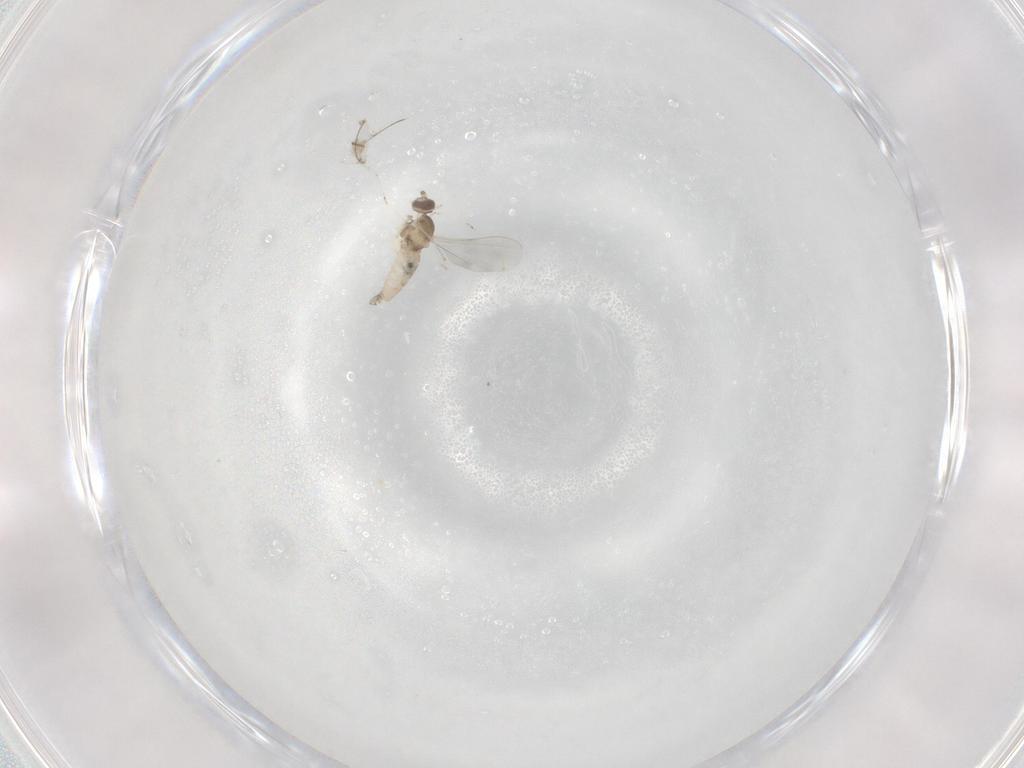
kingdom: Animalia
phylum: Arthropoda
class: Insecta
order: Diptera
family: Cecidomyiidae
